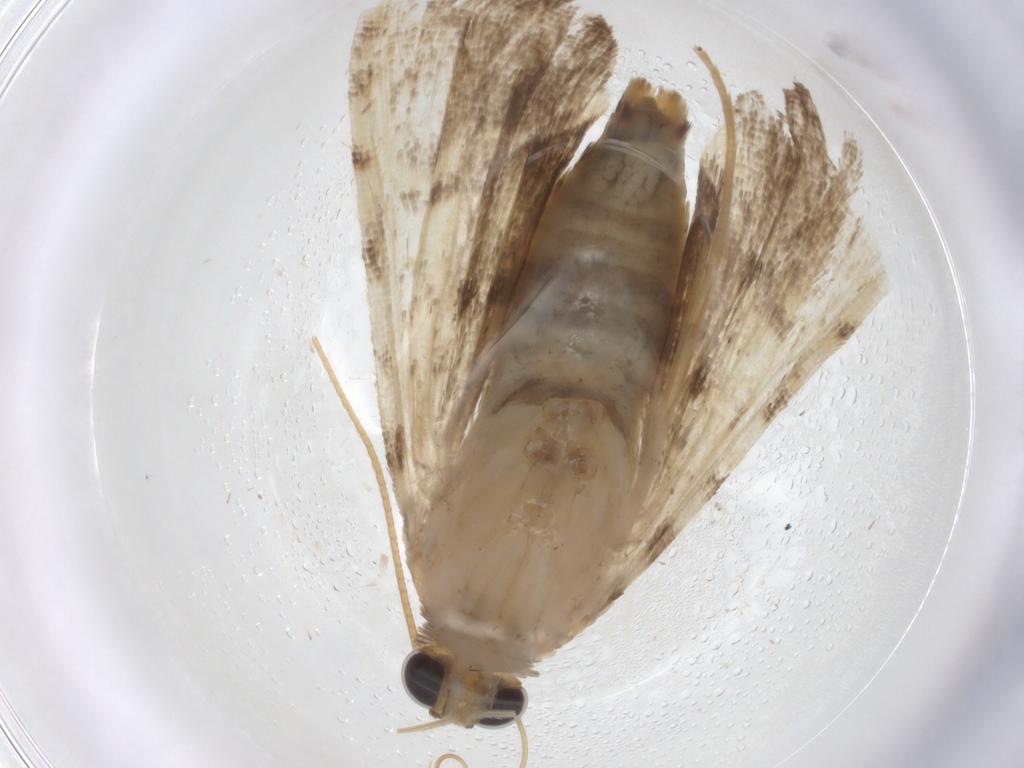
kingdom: Animalia
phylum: Arthropoda
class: Insecta
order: Lepidoptera
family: Crambidae
